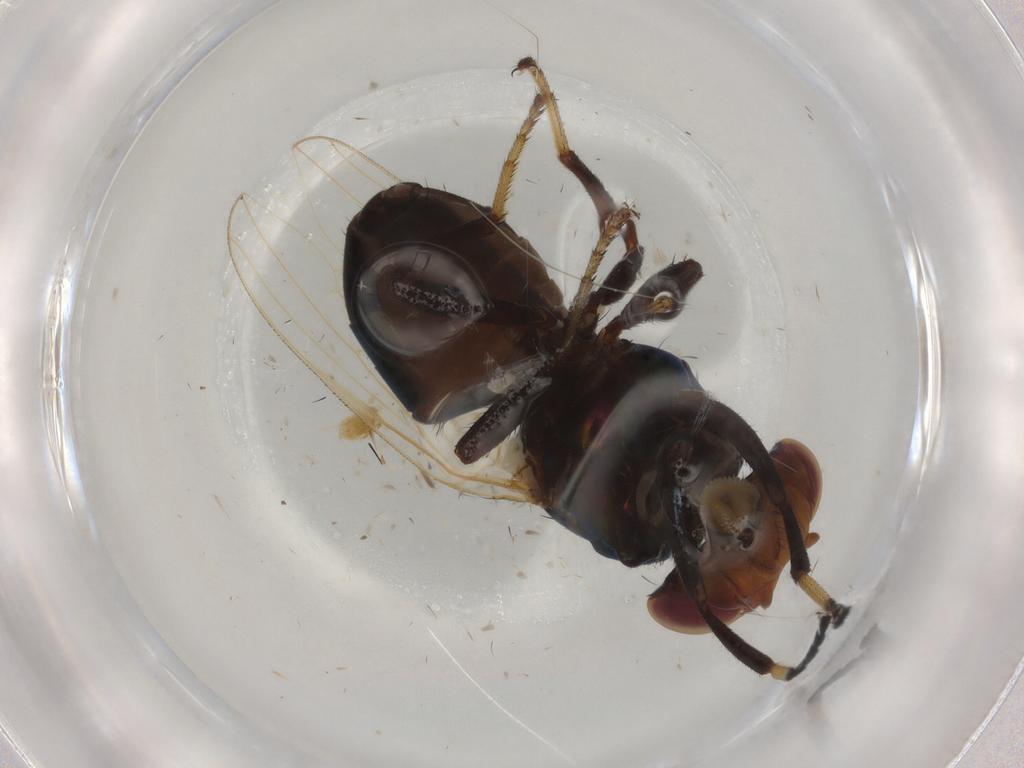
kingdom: Animalia
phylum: Arthropoda
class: Insecta
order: Diptera
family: Ulidiidae
